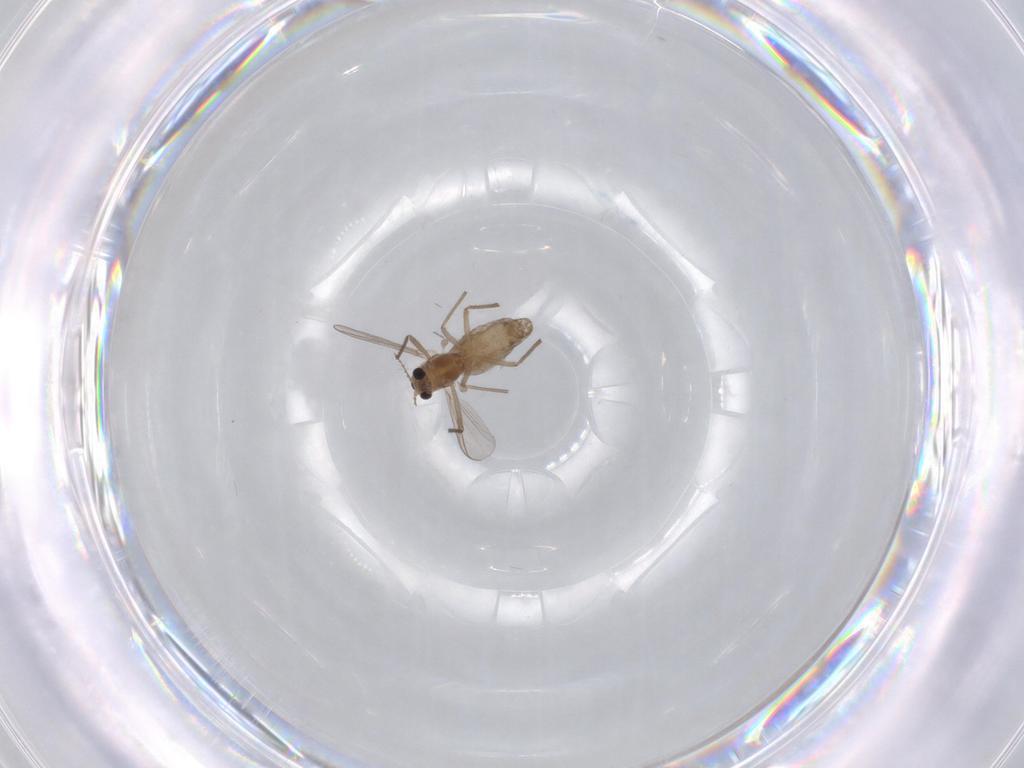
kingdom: Animalia
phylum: Arthropoda
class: Insecta
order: Diptera
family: Chironomidae
